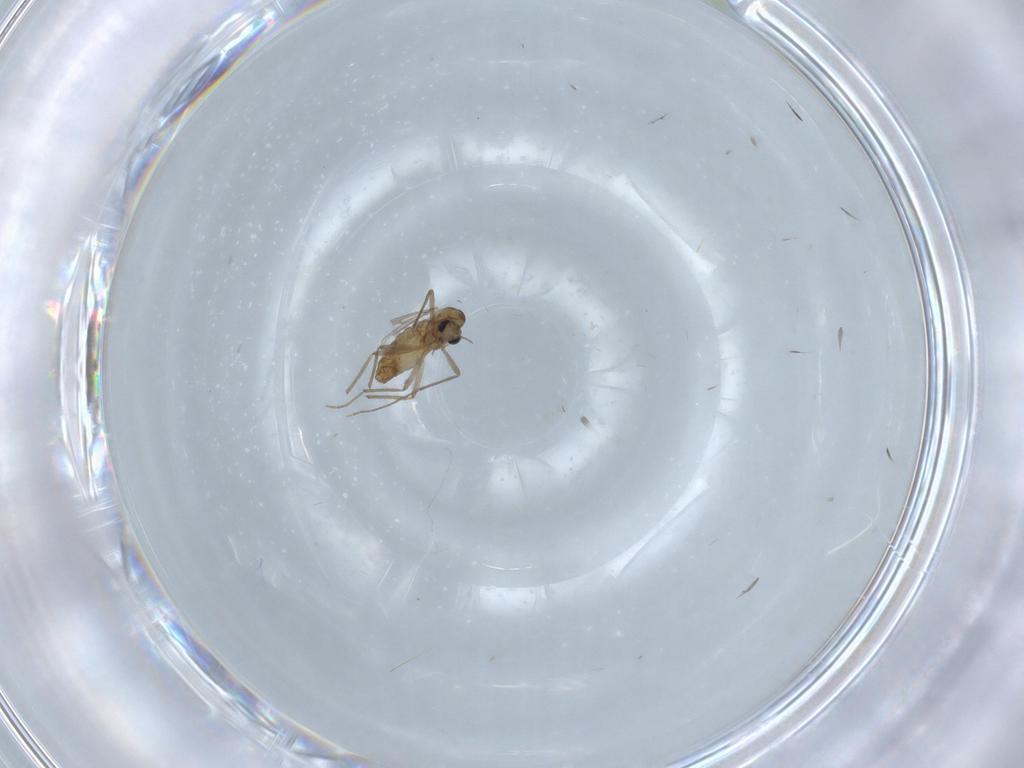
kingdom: Animalia
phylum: Arthropoda
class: Insecta
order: Diptera
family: Chironomidae
